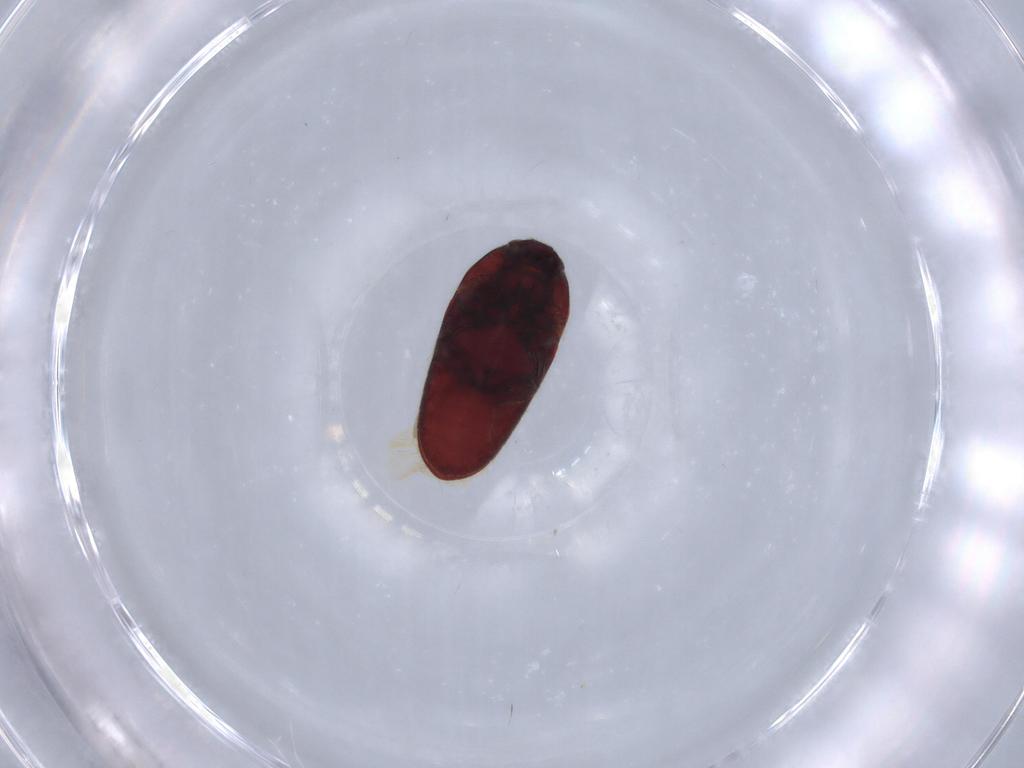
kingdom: Animalia
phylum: Arthropoda
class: Insecta
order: Coleoptera
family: Throscidae
